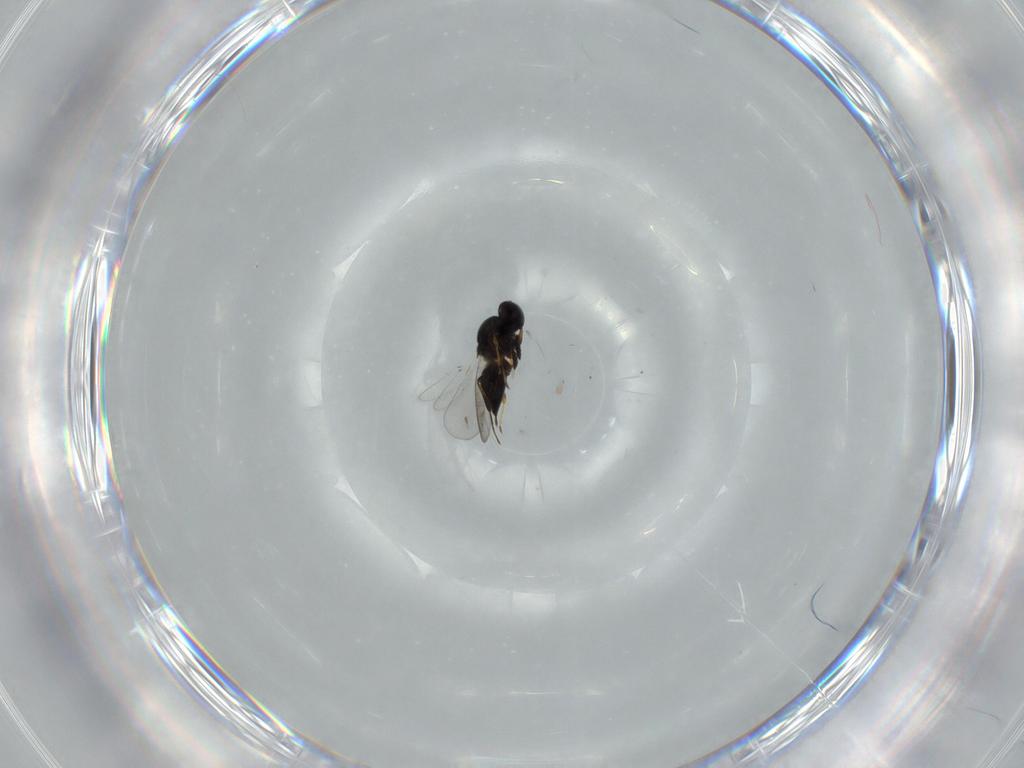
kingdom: Animalia
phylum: Arthropoda
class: Insecta
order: Hymenoptera
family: Platygastridae
